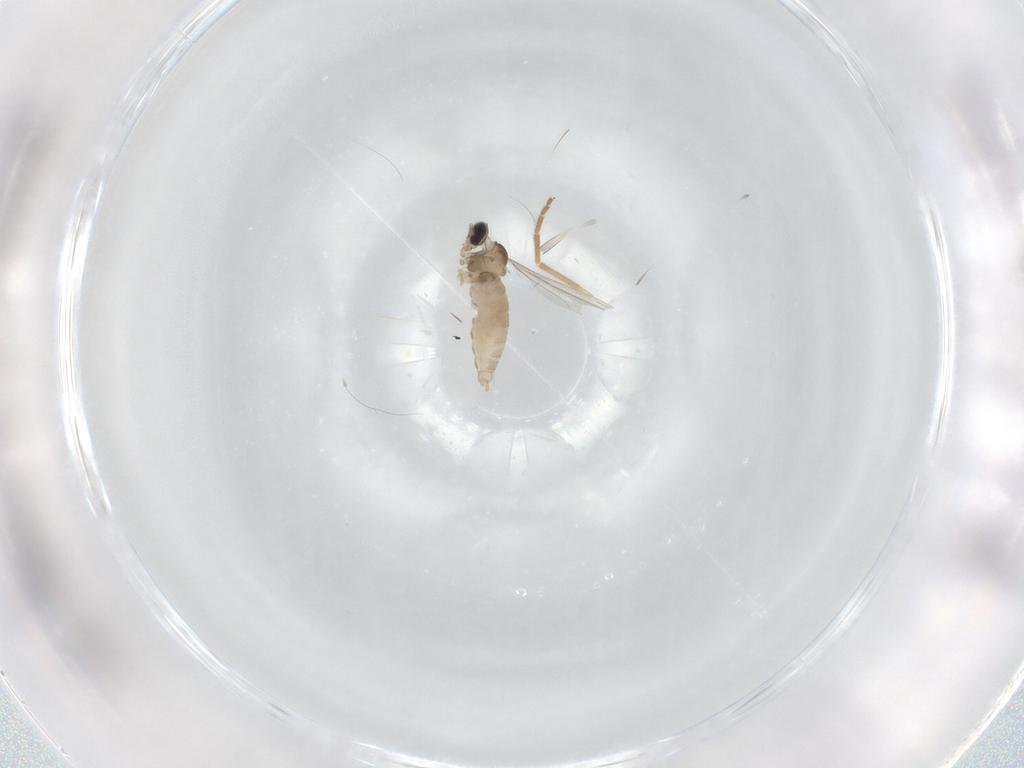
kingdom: Animalia
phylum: Arthropoda
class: Insecta
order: Diptera
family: Cecidomyiidae
